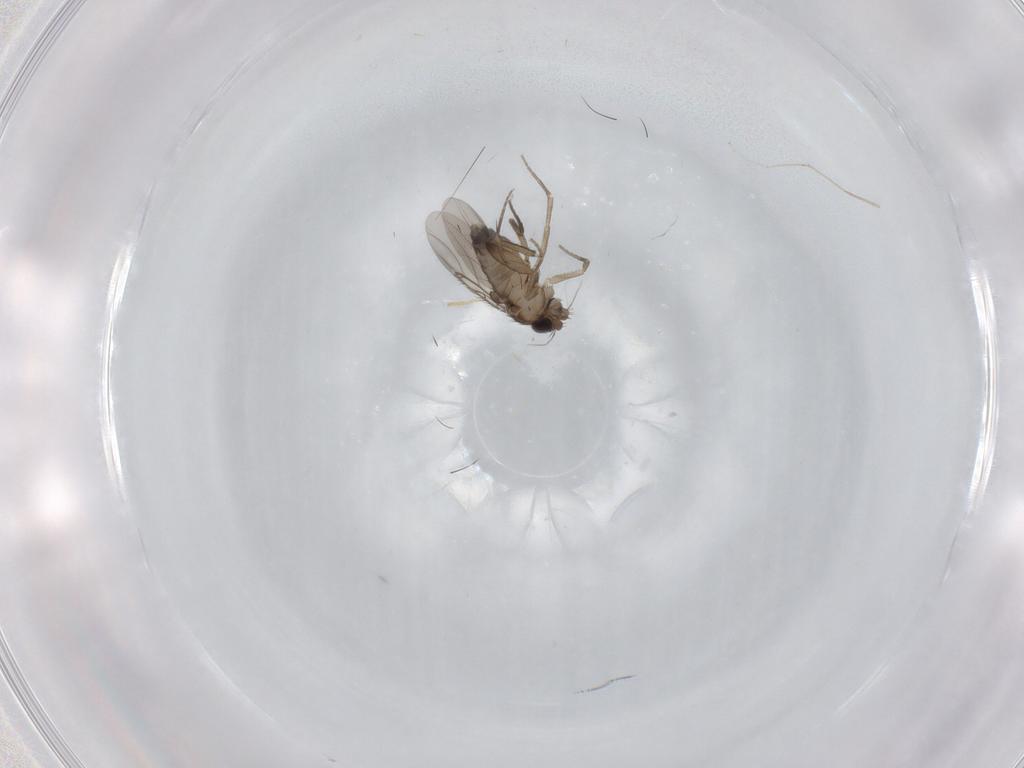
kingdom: Animalia
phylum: Arthropoda
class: Insecta
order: Diptera
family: Phoridae
